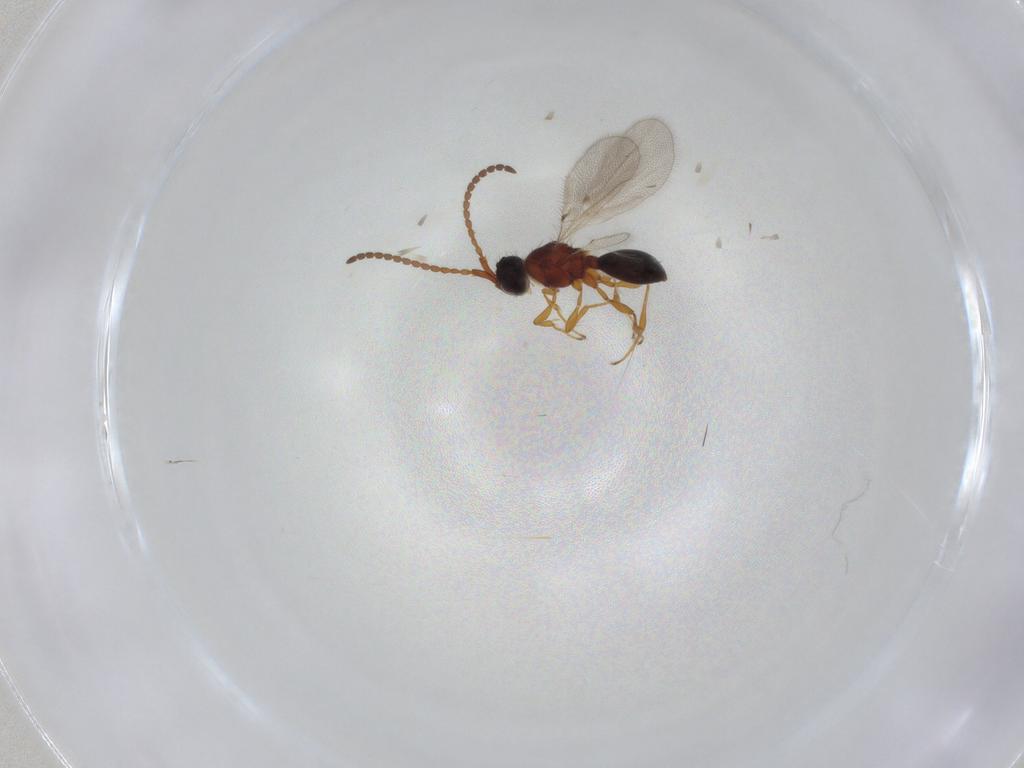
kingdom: Animalia
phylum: Arthropoda
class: Insecta
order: Hymenoptera
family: Diapriidae
